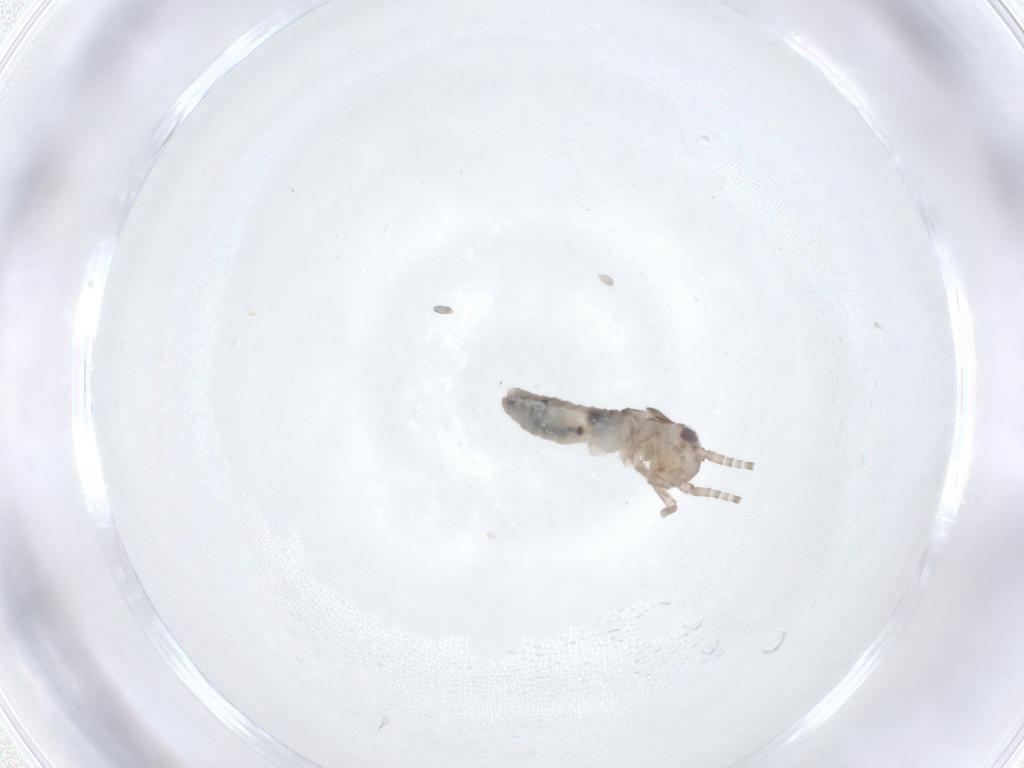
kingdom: Animalia
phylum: Arthropoda
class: Insecta
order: Orthoptera
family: Gryllidae
